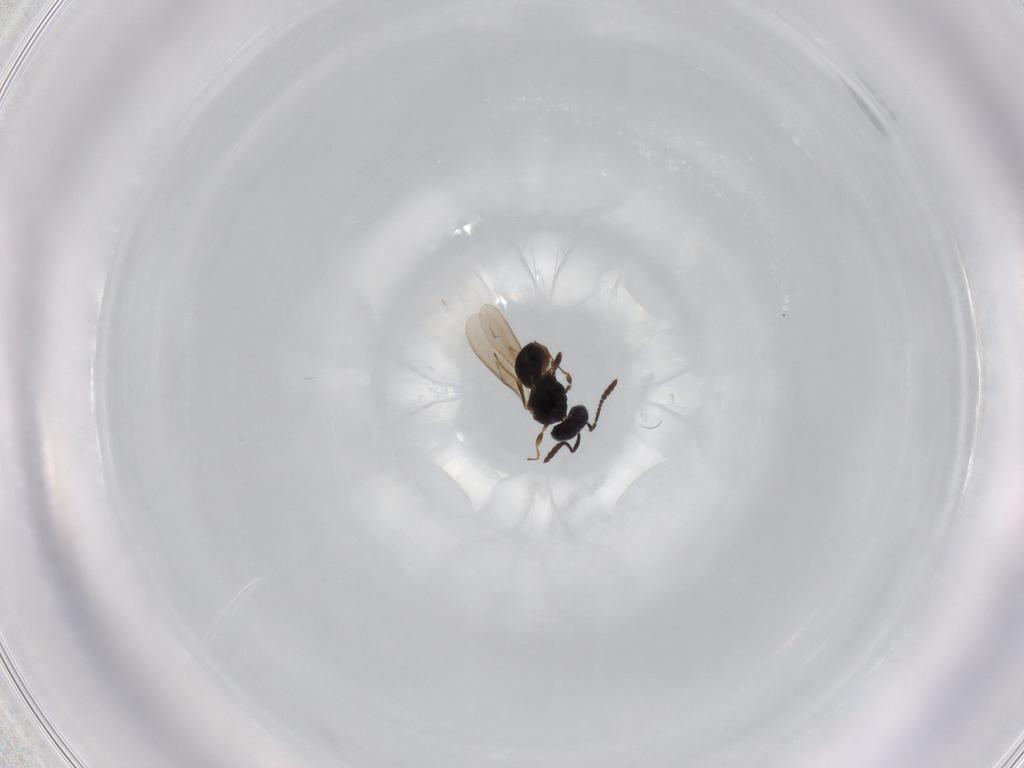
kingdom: Animalia
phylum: Arthropoda
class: Insecta
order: Hymenoptera
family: Scelionidae
